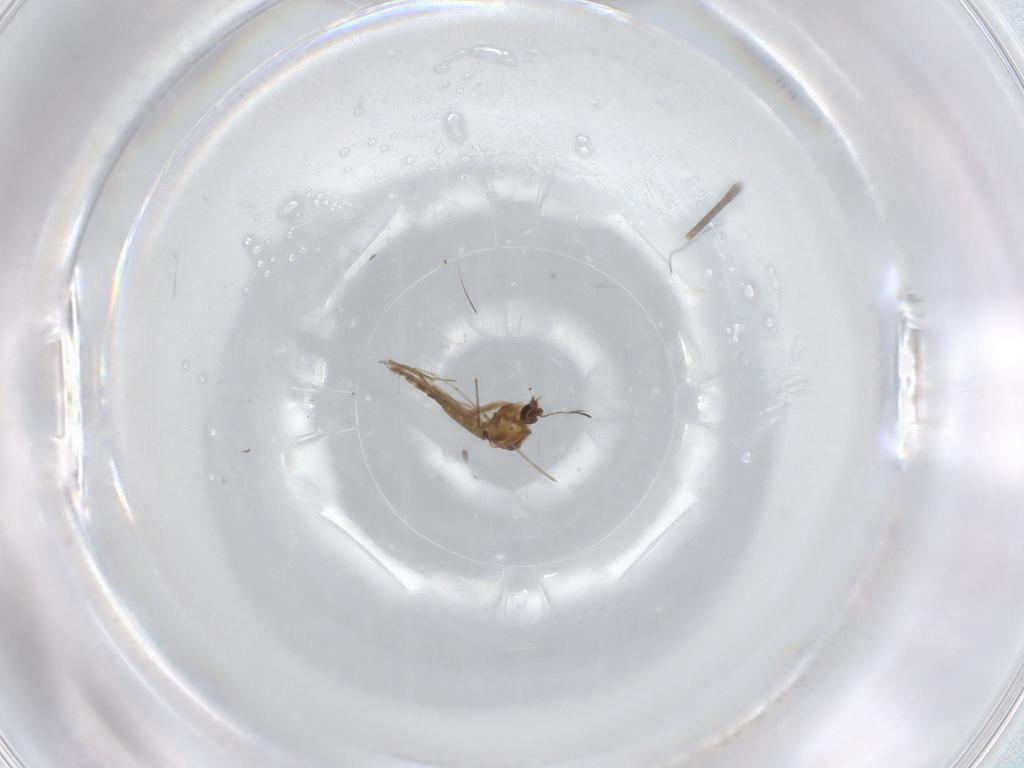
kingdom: Animalia
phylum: Arthropoda
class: Insecta
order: Diptera
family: Chironomidae
